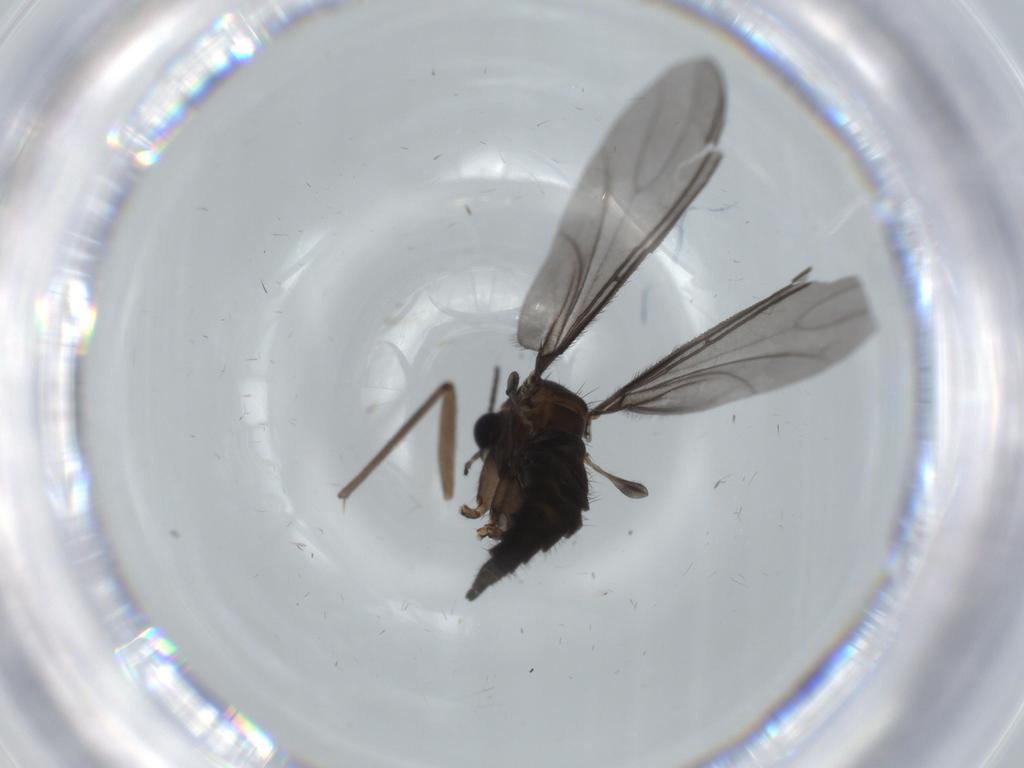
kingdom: Animalia
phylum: Arthropoda
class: Insecta
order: Diptera
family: Sciaridae
